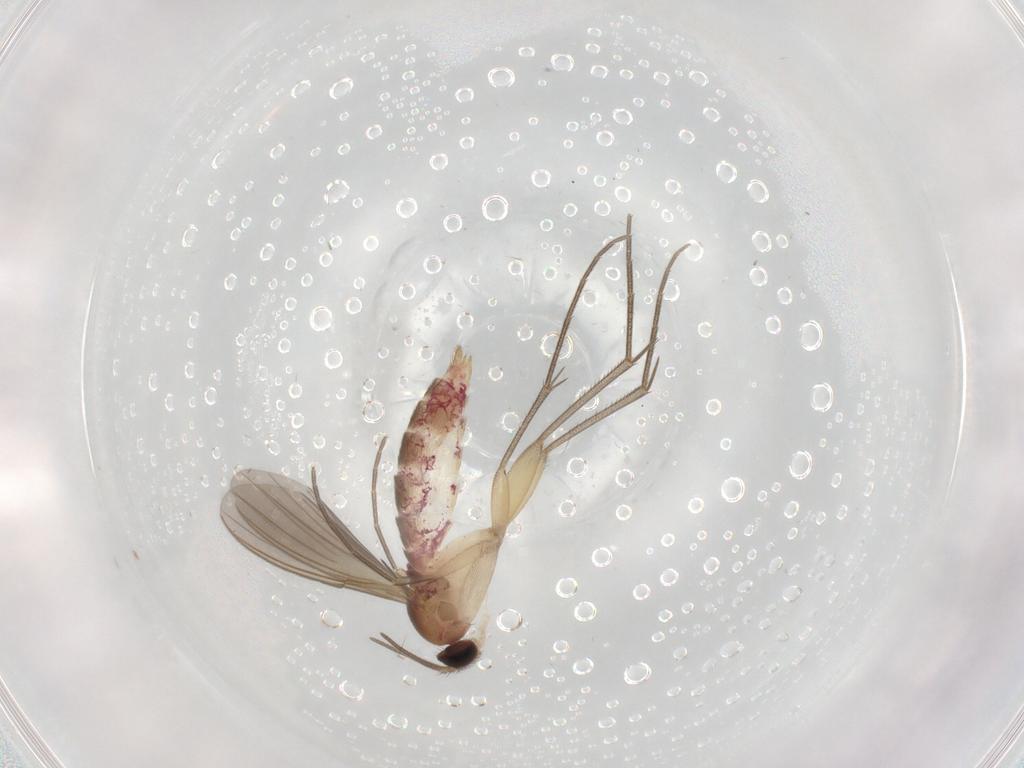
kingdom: Animalia
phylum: Arthropoda
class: Insecta
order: Diptera
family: Mycetophilidae
